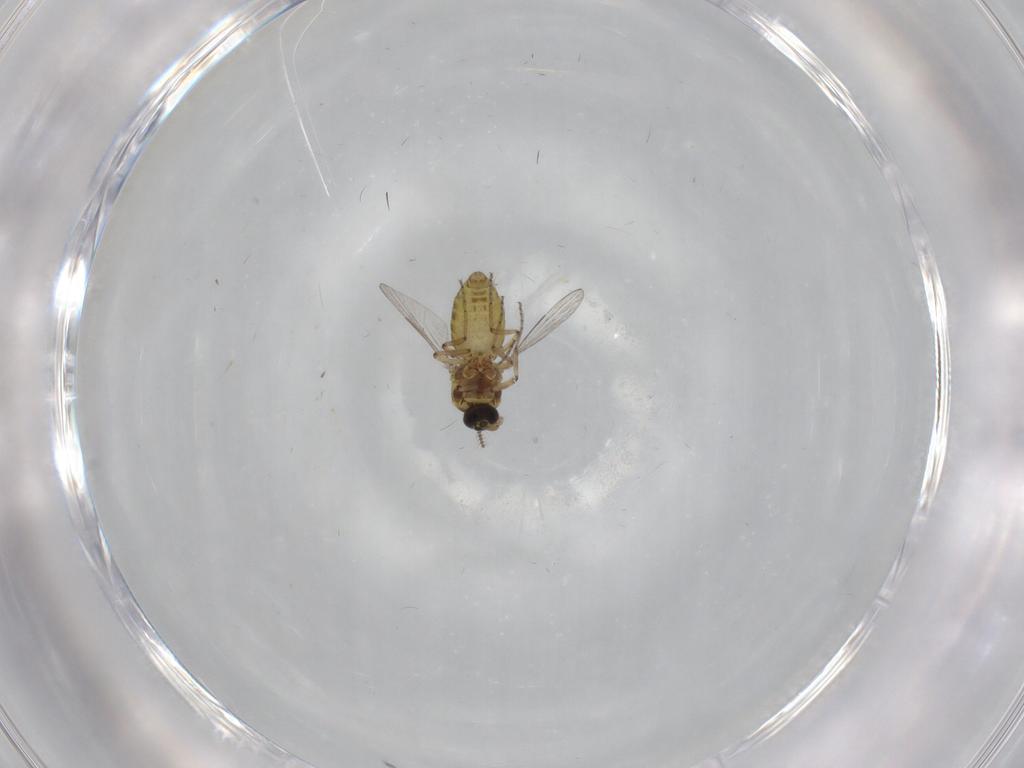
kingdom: Animalia
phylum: Arthropoda
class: Insecta
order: Diptera
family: Ceratopogonidae
